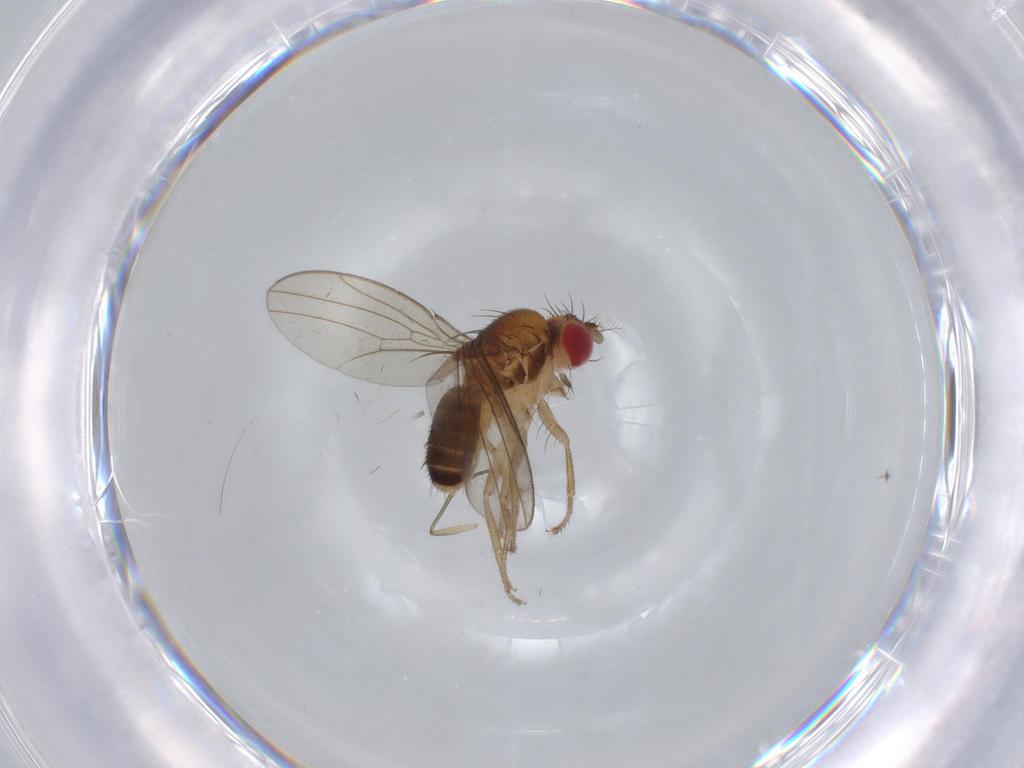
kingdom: Animalia
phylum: Arthropoda
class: Insecta
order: Diptera
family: Drosophilidae
